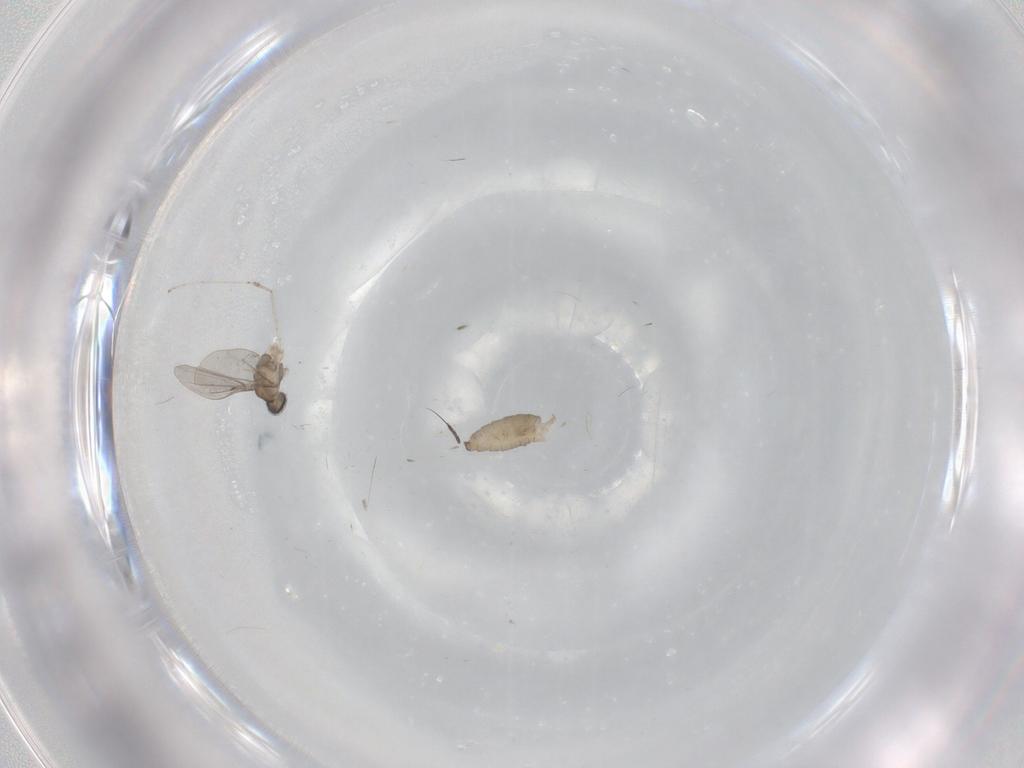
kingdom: Animalia
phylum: Arthropoda
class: Insecta
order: Diptera
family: Cecidomyiidae
